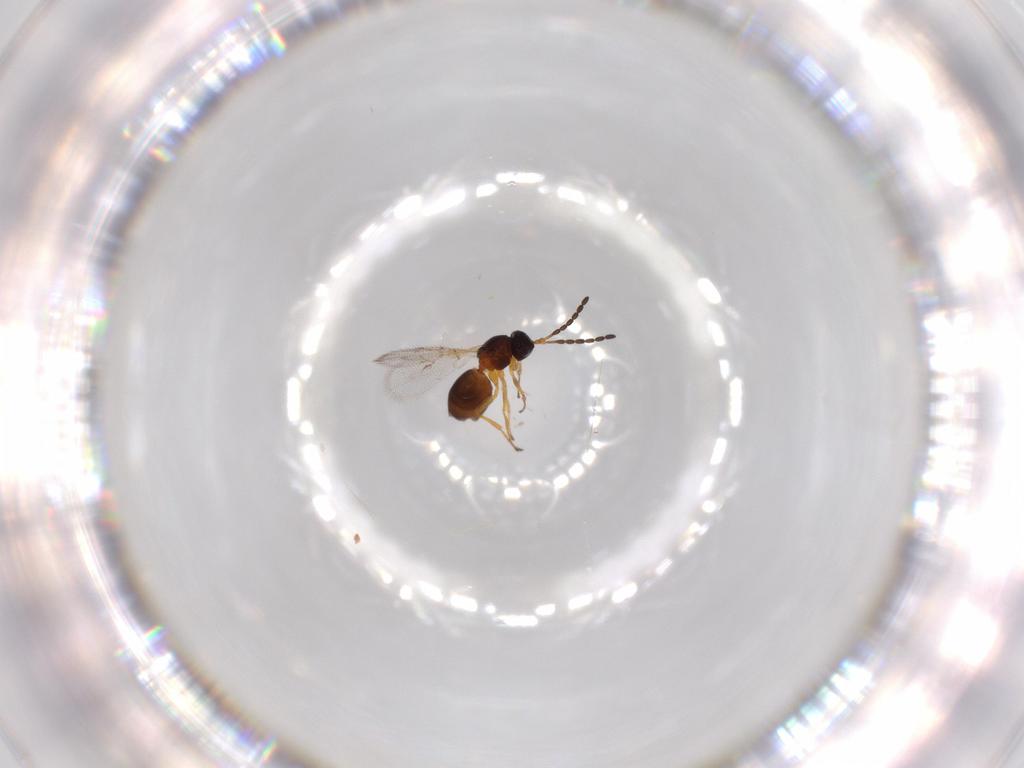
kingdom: Animalia
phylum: Arthropoda
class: Insecta
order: Hymenoptera
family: Figitidae
